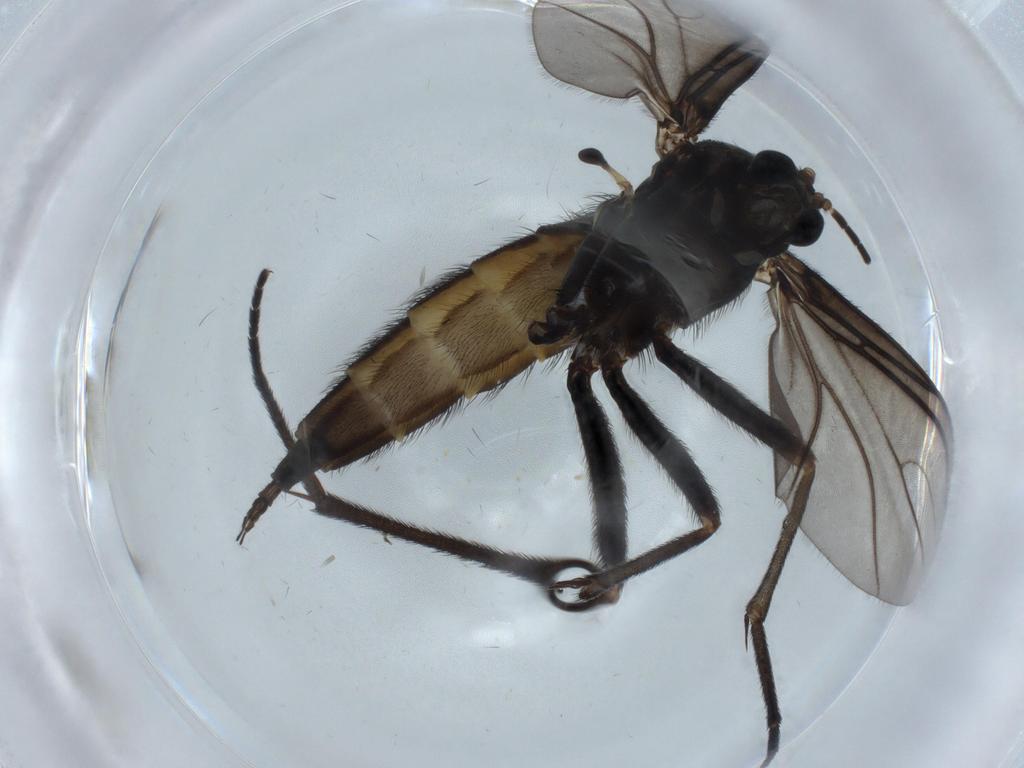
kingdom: Animalia
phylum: Arthropoda
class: Insecta
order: Diptera
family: Sciaridae
